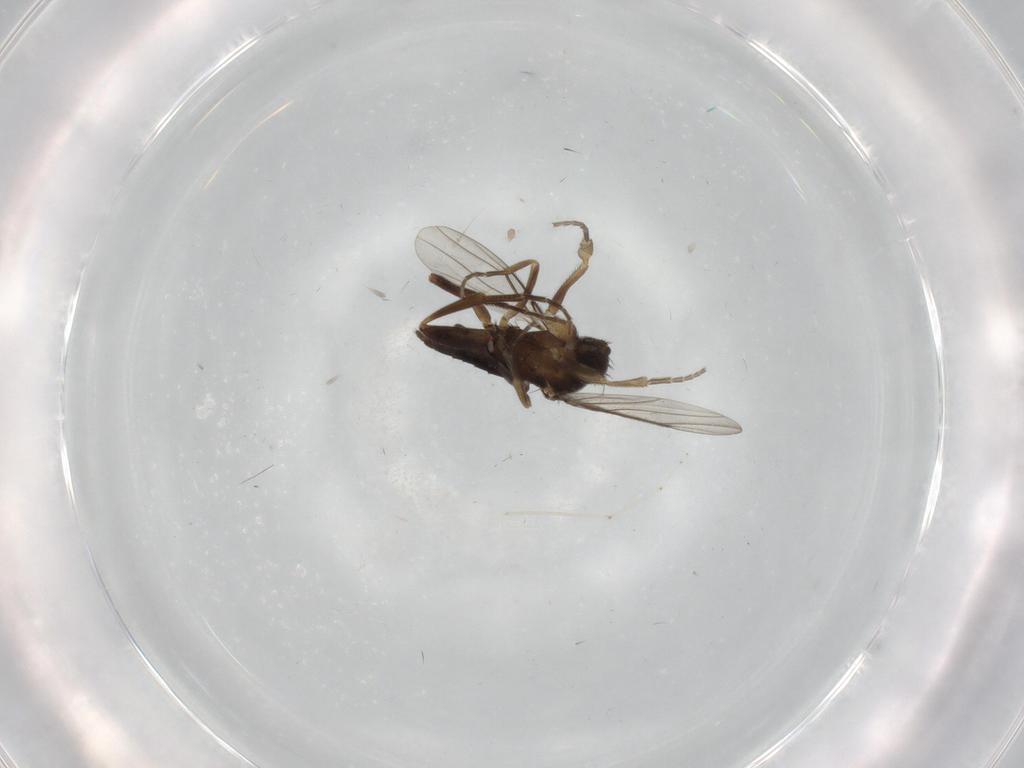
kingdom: Animalia
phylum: Arthropoda
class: Insecta
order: Diptera
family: Phoridae
